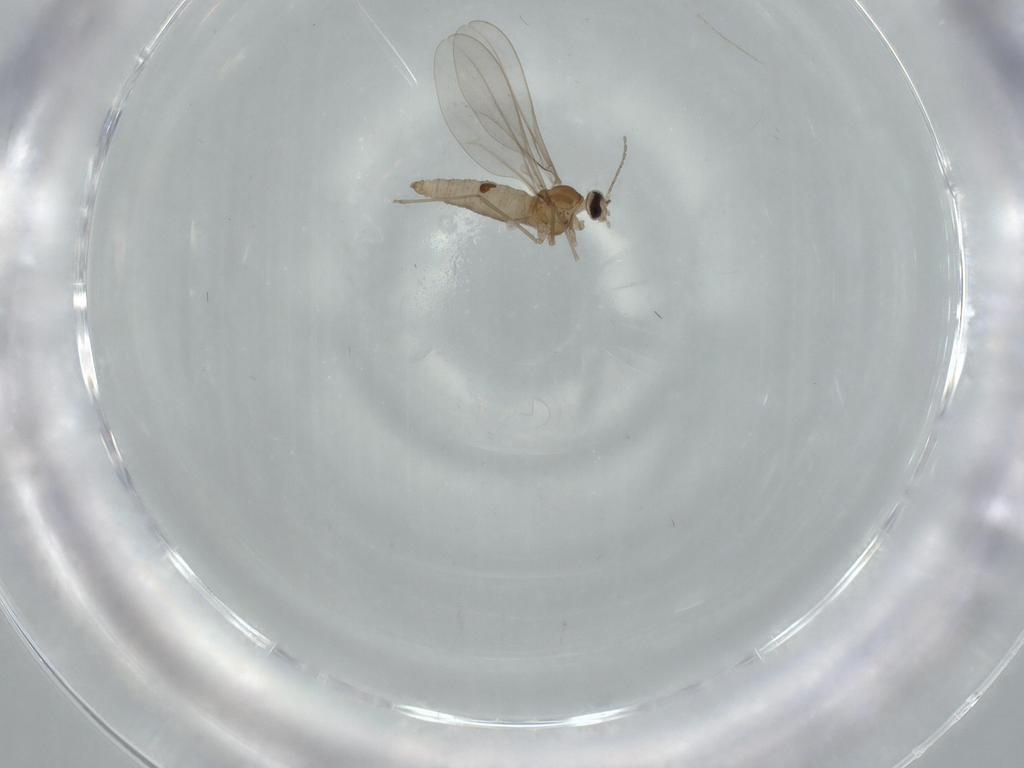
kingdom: Animalia
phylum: Arthropoda
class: Insecta
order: Diptera
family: Cecidomyiidae
